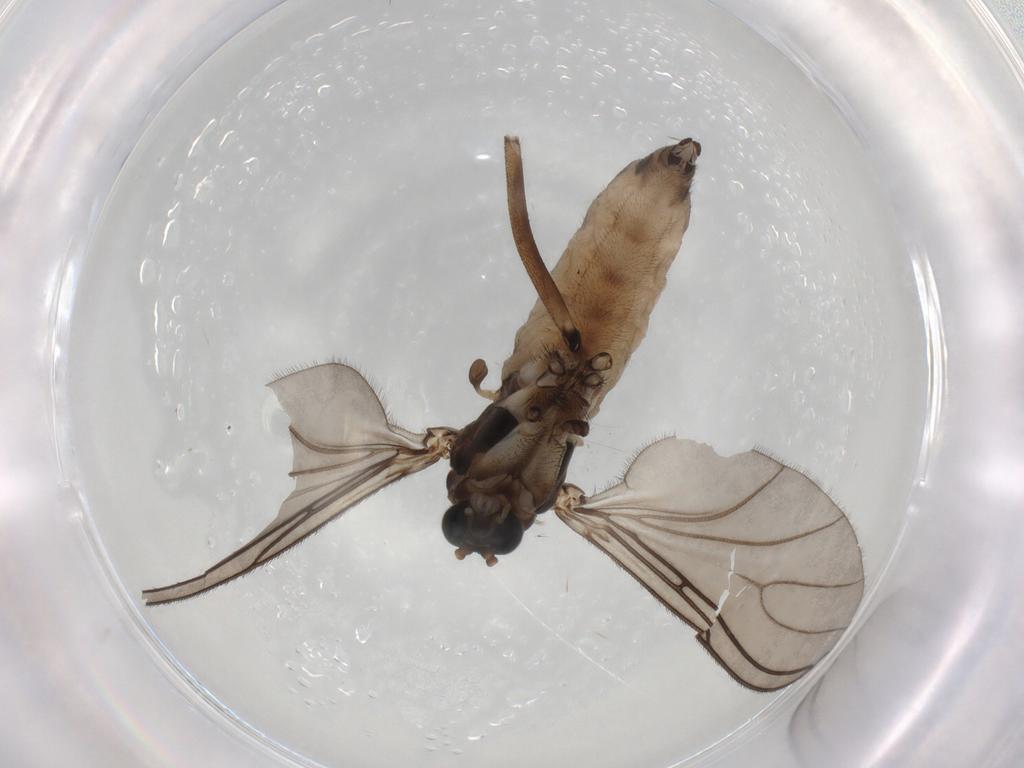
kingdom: Animalia
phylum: Arthropoda
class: Insecta
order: Diptera
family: Sciaridae
